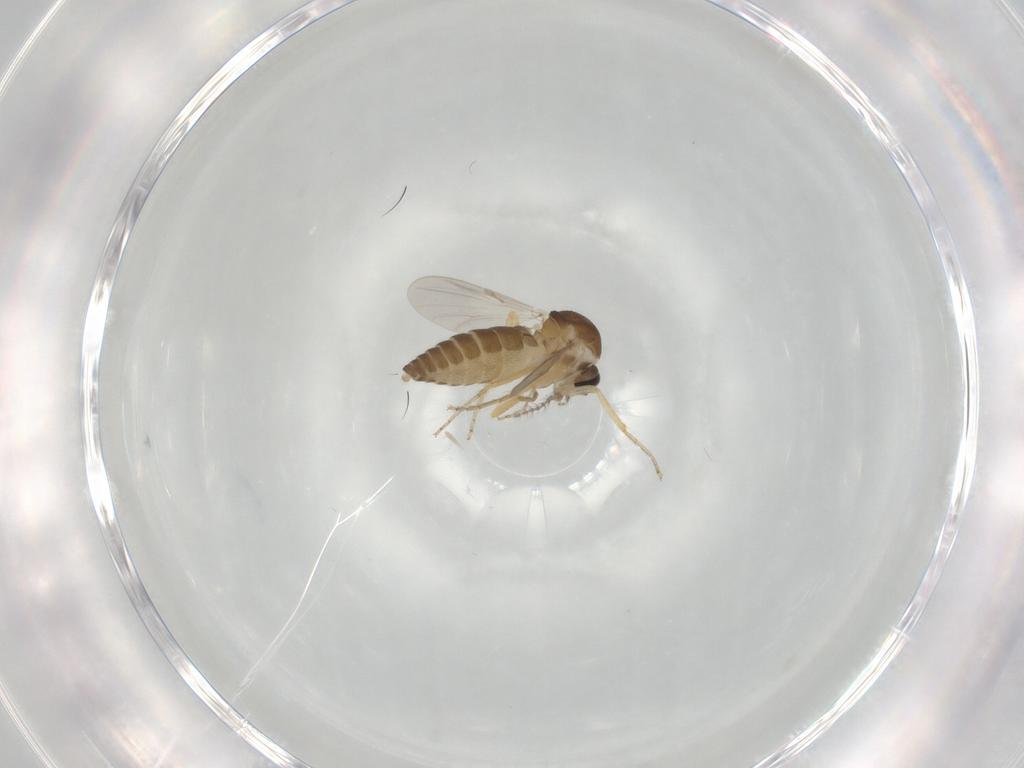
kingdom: Animalia
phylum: Arthropoda
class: Insecta
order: Diptera
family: Ceratopogonidae
